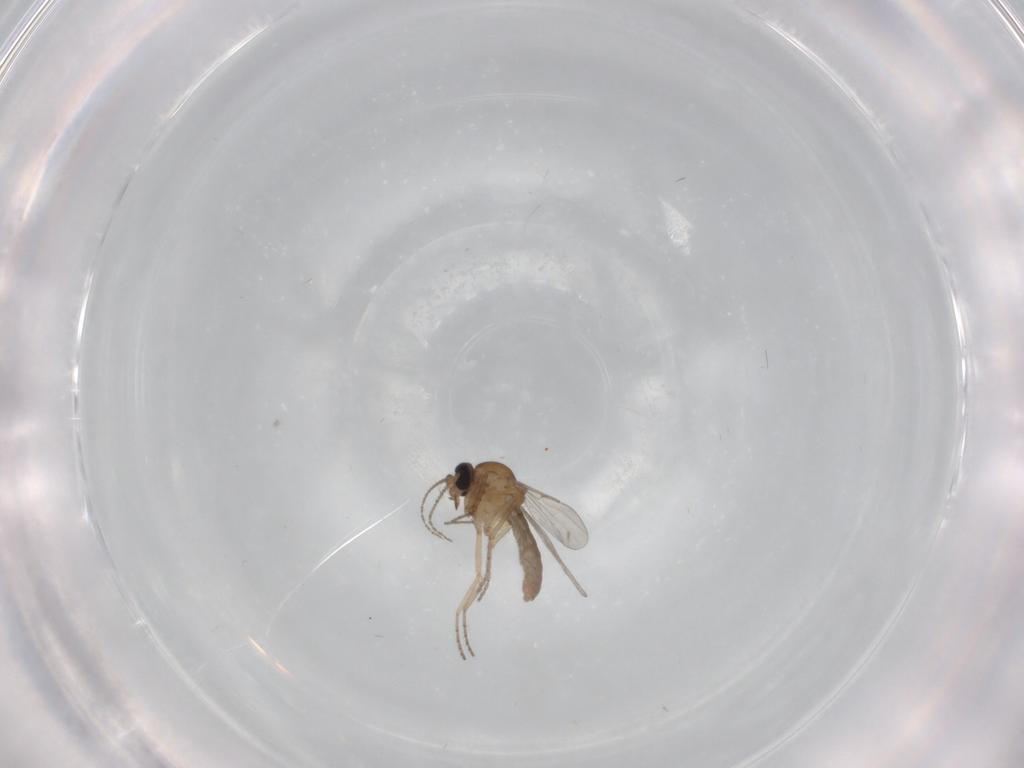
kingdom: Animalia
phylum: Arthropoda
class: Insecta
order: Diptera
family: Ceratopogonidae
